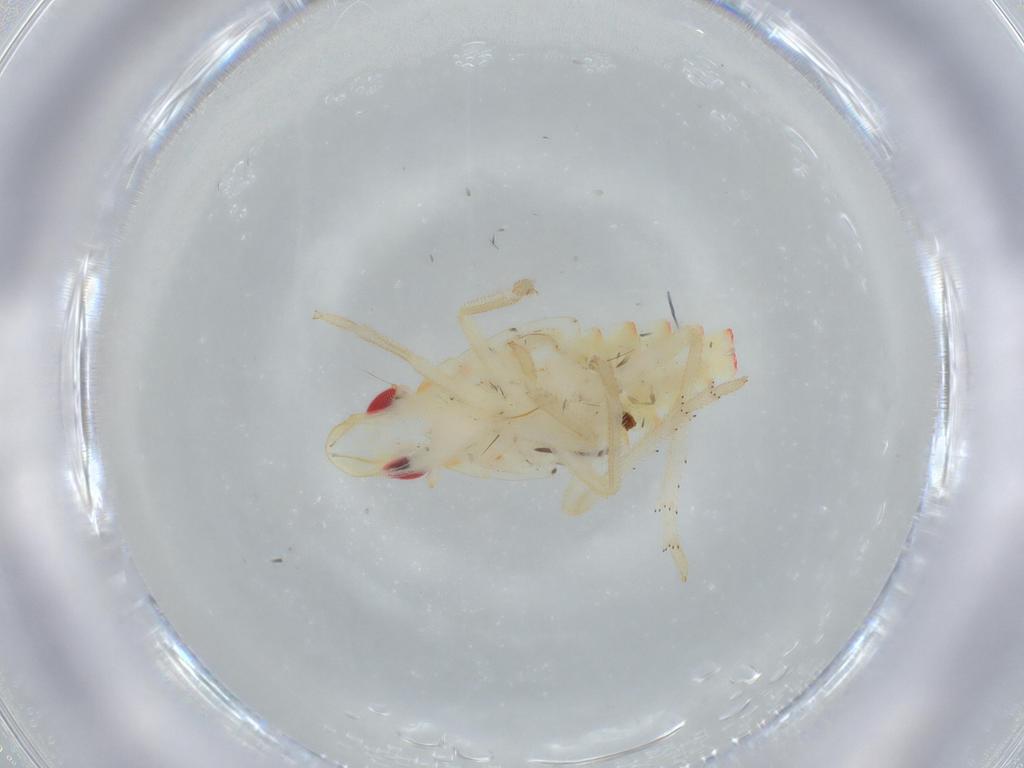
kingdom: Animalia
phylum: Arthropoda
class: Insecta
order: Hemiptera
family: Tropiduchidae
